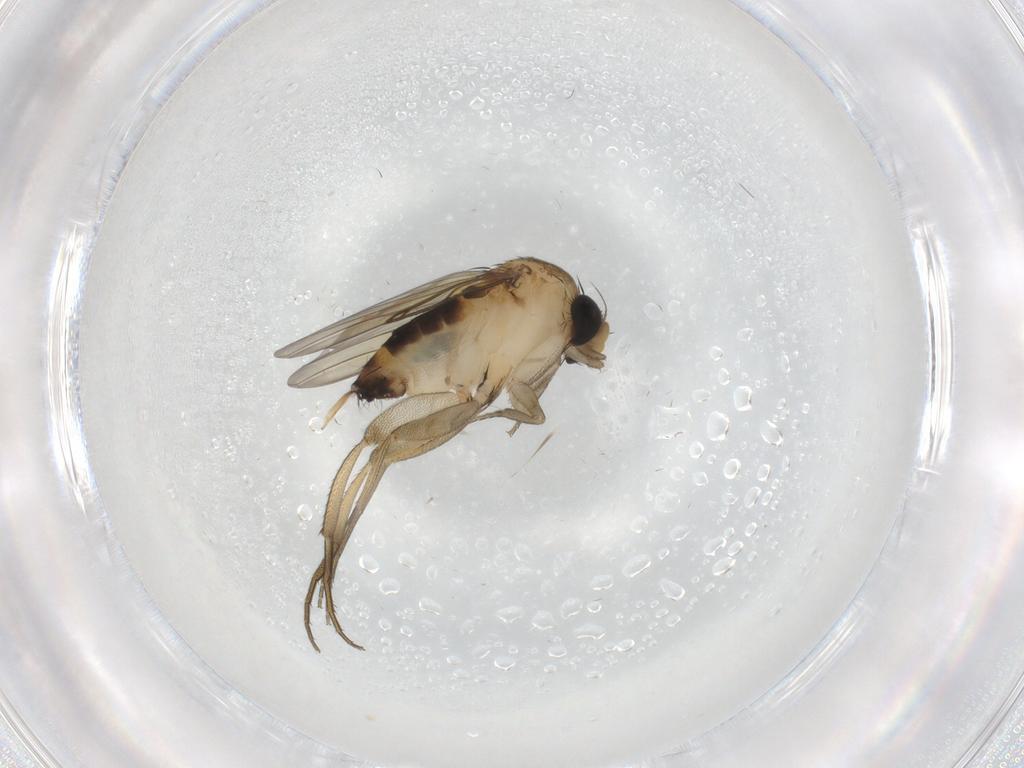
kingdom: Animalia
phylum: Arthropoda
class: Insecta
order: Diptera
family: Phoridae
